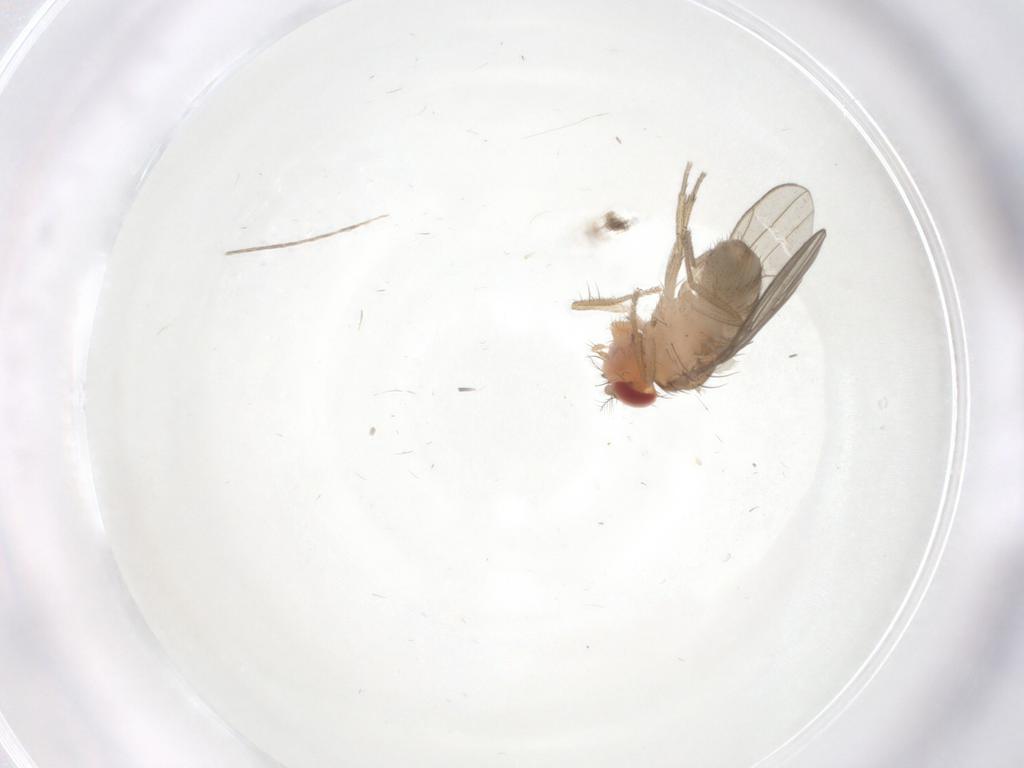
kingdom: Animalia
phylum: Arthropoda
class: Insecta
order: Diptera
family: Drosophilidae
